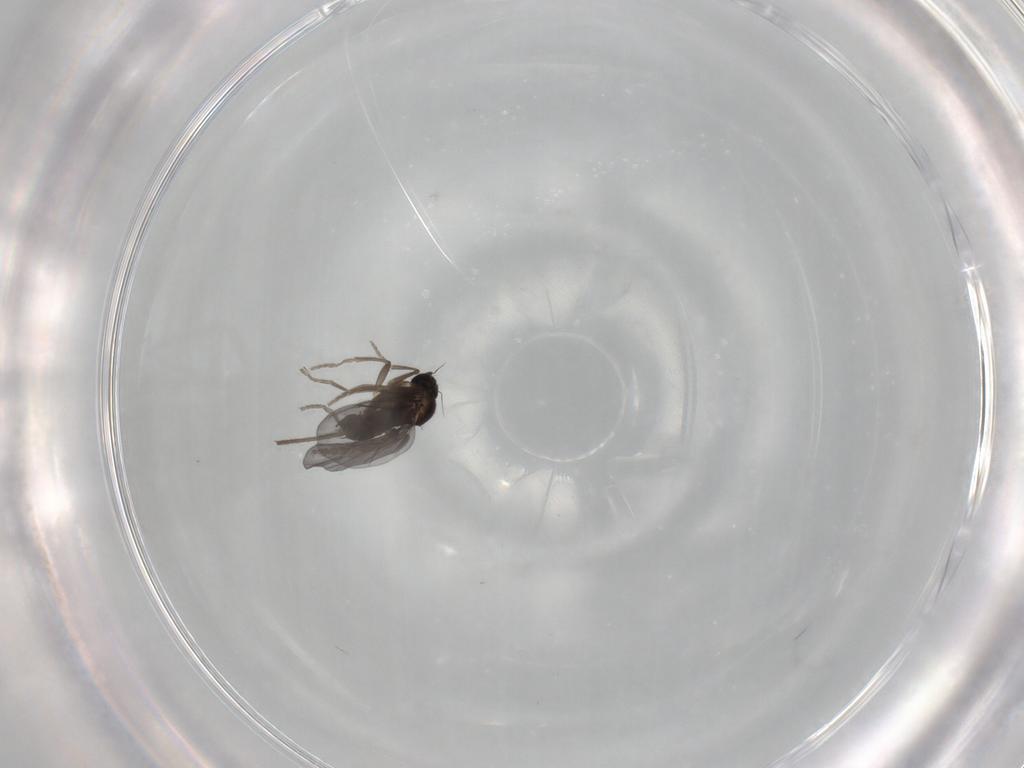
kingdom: Animalia
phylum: Arthropoda
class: Insecta
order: Diptera
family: Phoridae
